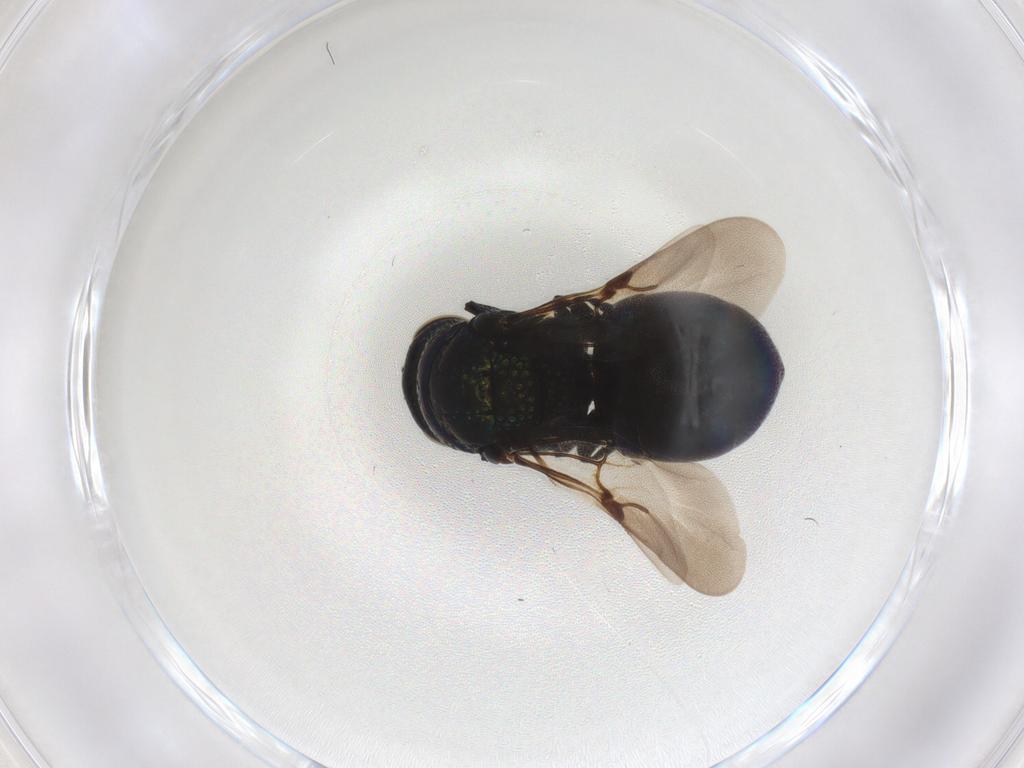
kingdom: Animalia
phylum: Arthropoda
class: Insecta
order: Hymenoptera
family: Chrysididae
